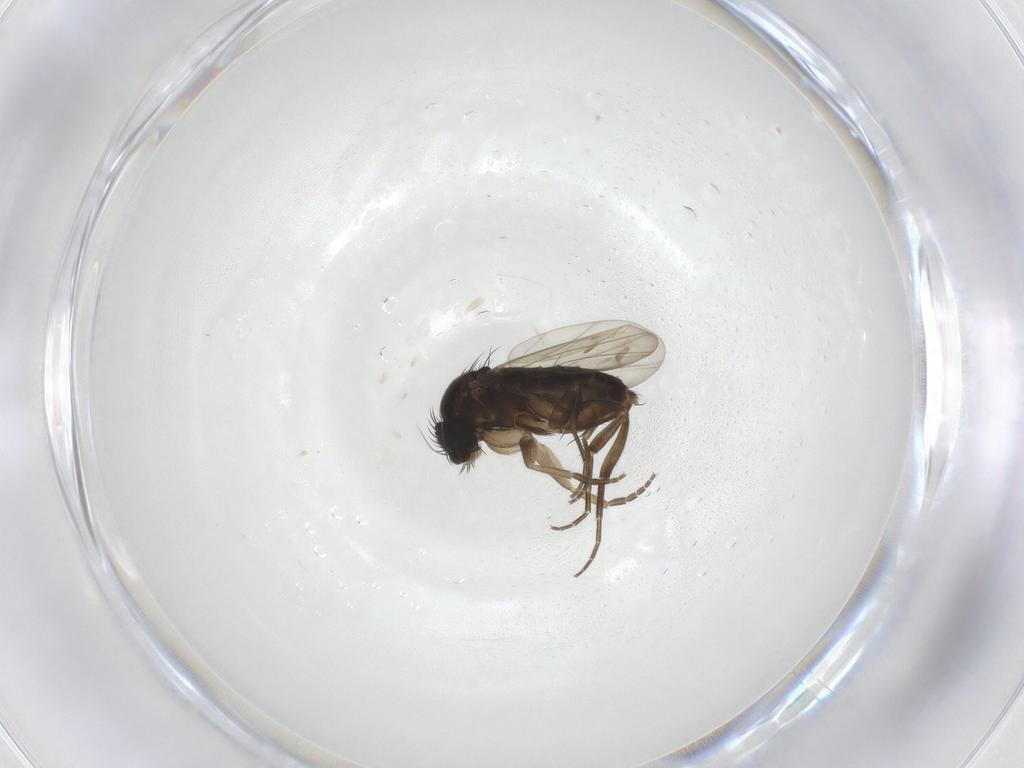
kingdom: Animalia
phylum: Arthropoda
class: Insecta
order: Diptera
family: Phoridae
